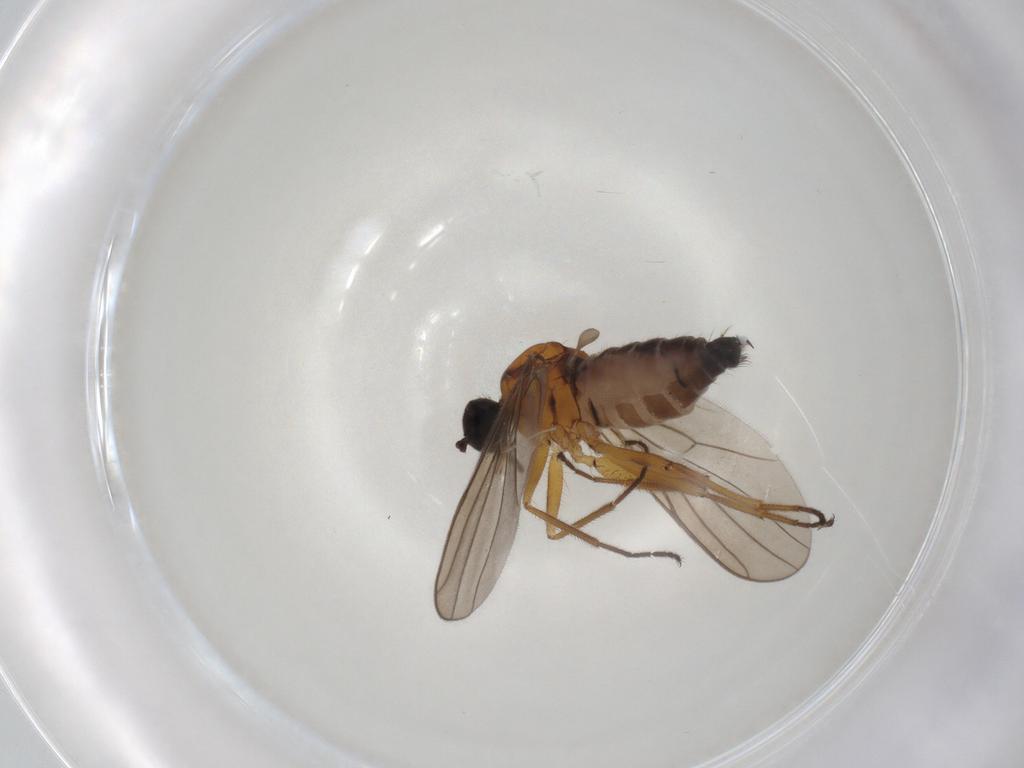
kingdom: Animalia
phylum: Arthropoda
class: Insecta
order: Diptera
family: Hybotidae
